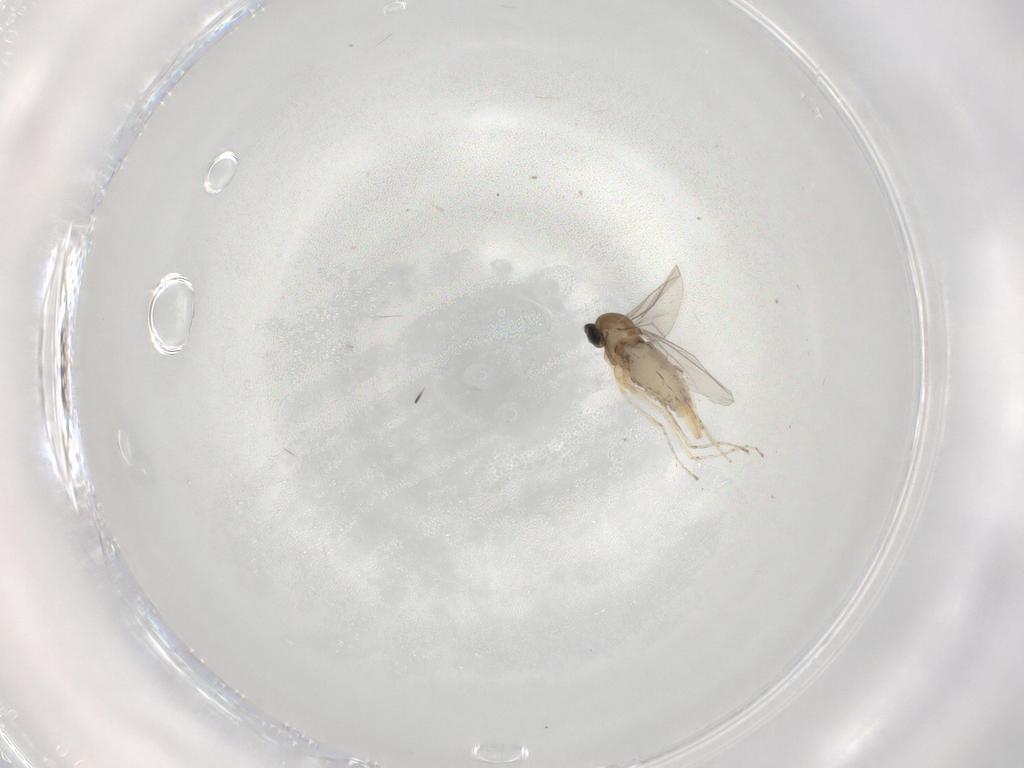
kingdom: Animalia
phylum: Arthropoda
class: Insecta
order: Diptera
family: Cecidomyiidae
